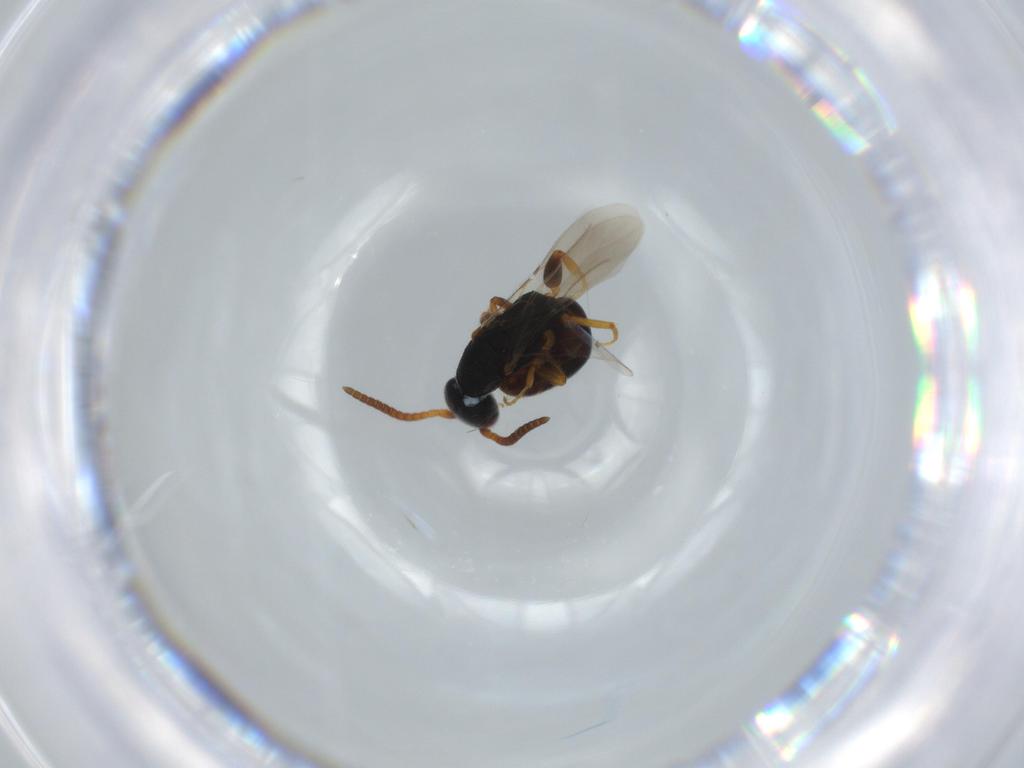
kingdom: Animalia
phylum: Arthropoda
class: Insecta
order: Hymenoptera
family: Bethylidae
